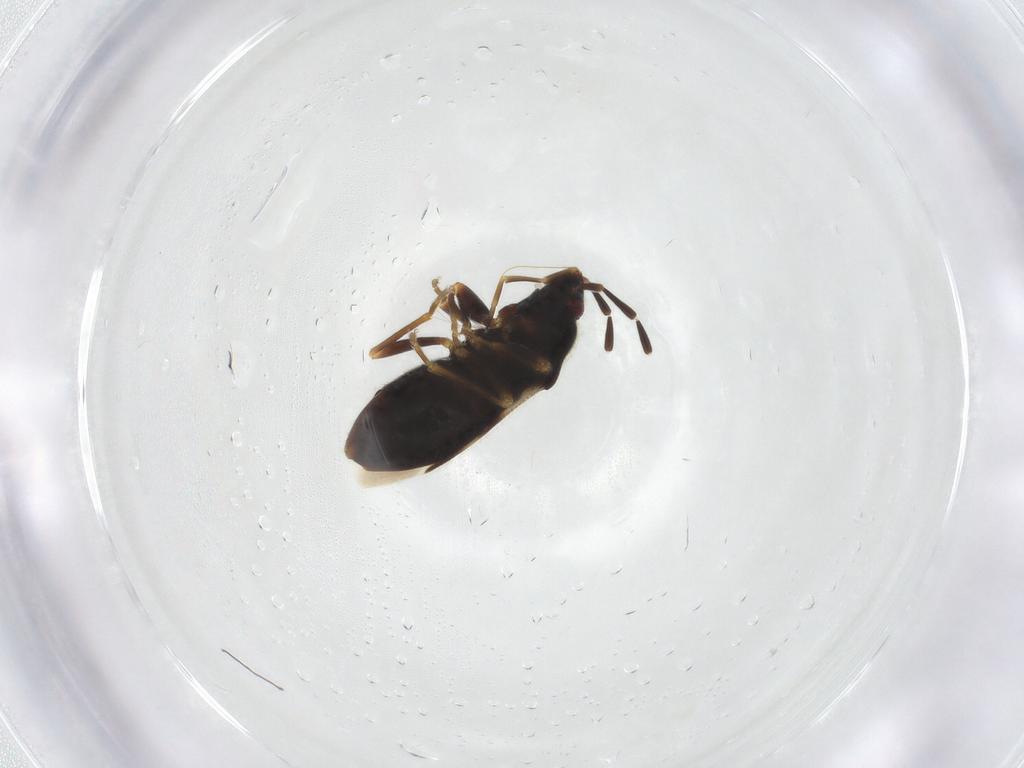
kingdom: Animalia
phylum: Arthropoda
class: Insecta
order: Hemiptera
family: Rhyparochromidae
